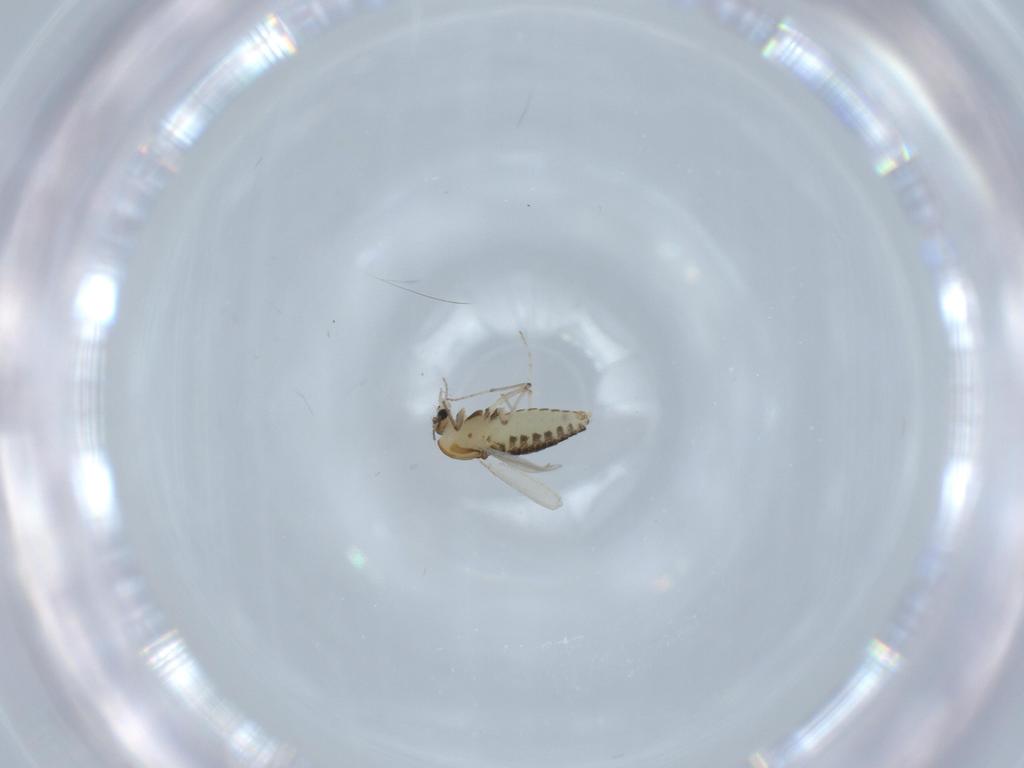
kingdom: Animalia
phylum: Arthropoda
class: Insecta
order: Diptera
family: Chironomidae
